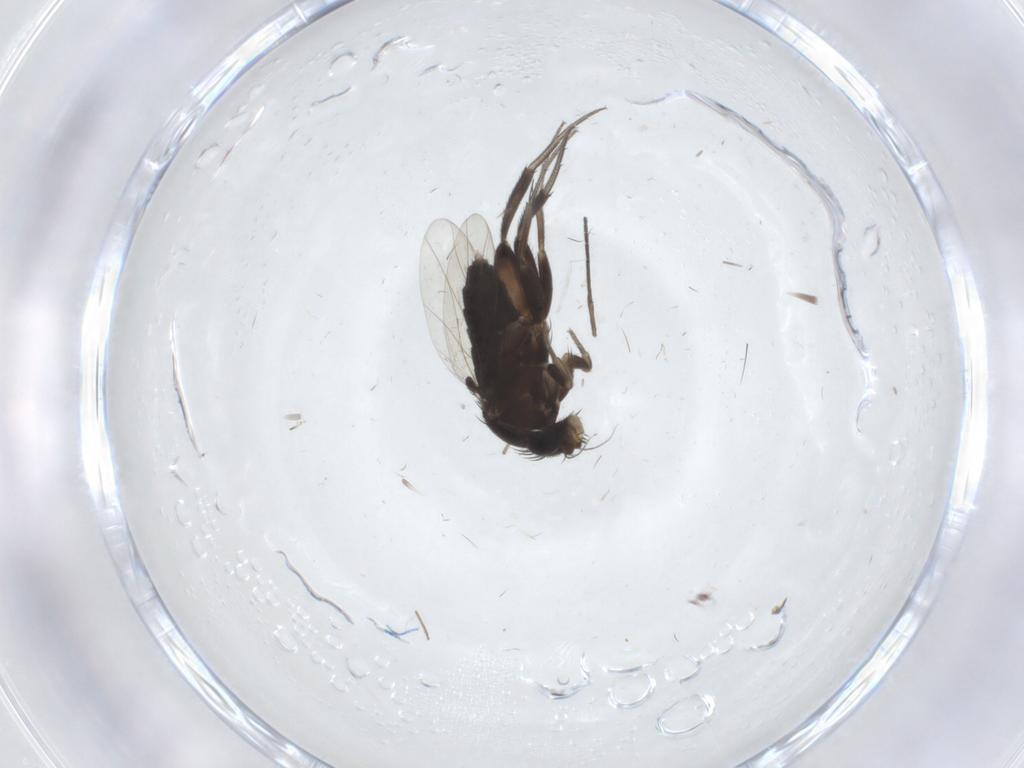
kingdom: Animalia
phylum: Arthropoda
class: Insecta
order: Diptera
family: Phoridae
